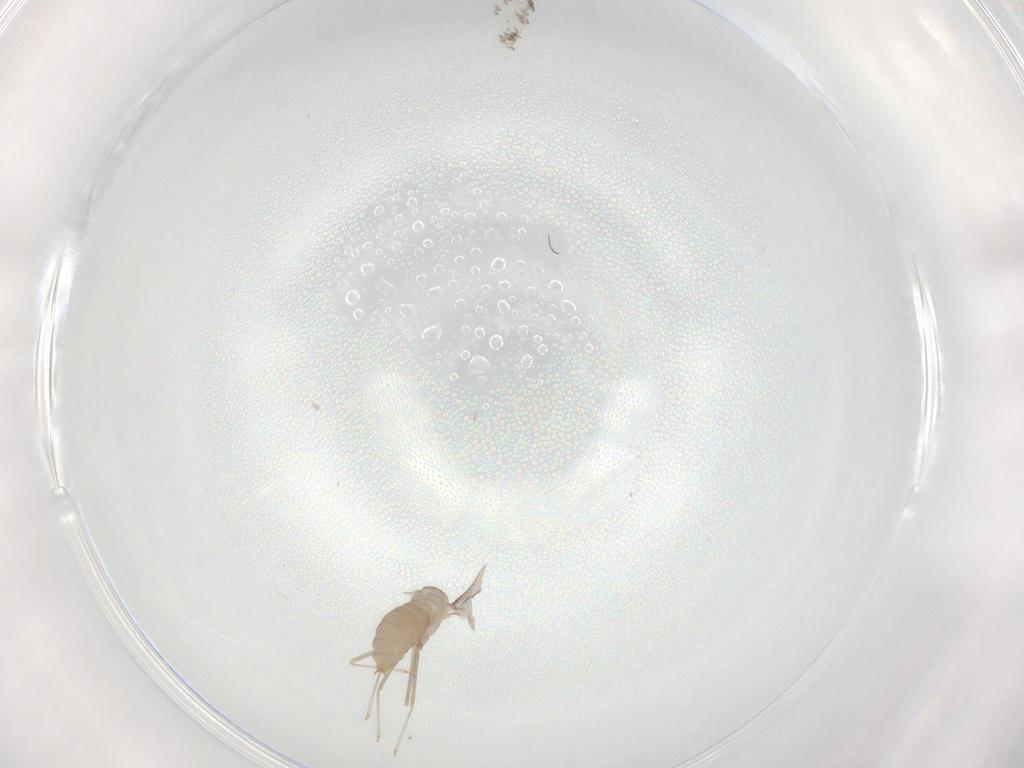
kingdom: Animalia
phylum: Arthropoda
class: Insecta
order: Diptera
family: Cecidomyiidae
